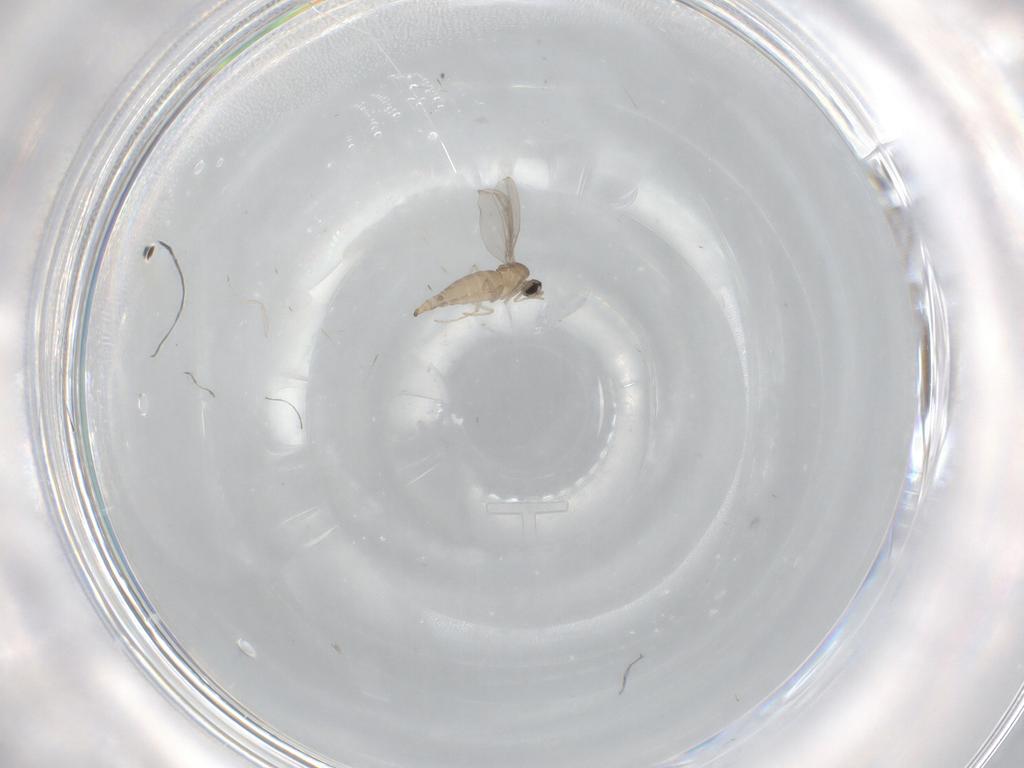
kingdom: Animalia
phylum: Arthropoda
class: Insecta
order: Diptera
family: Cecidomyiidae
